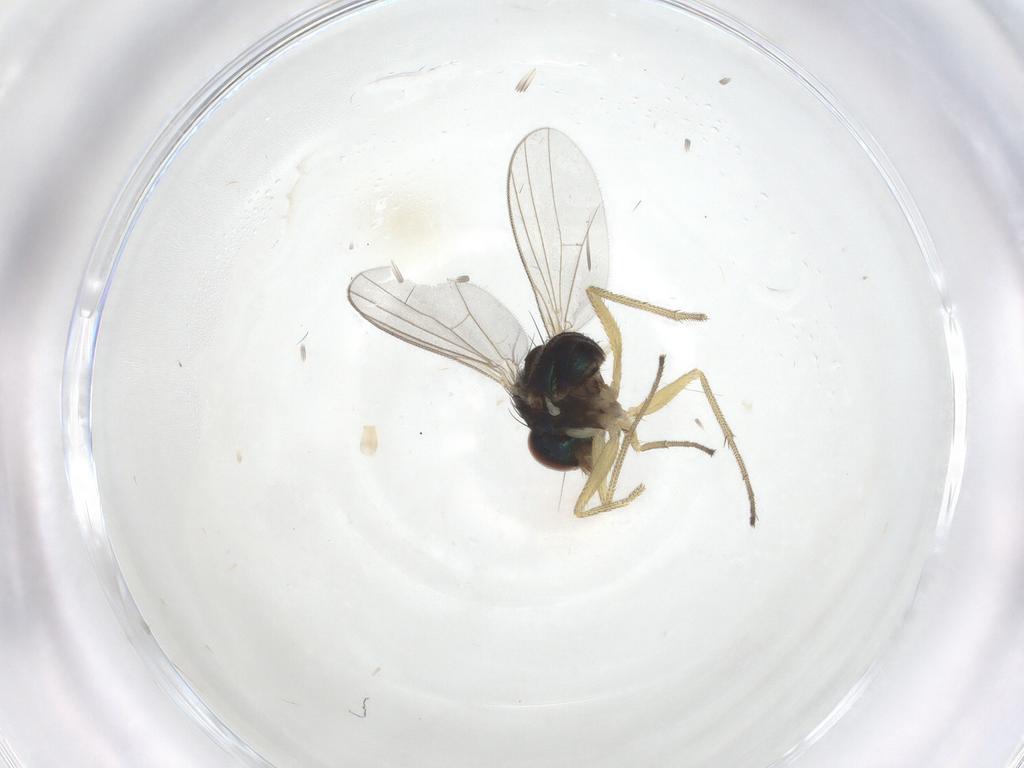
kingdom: Animalia
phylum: Arthropoda
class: Insecta
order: Diptera
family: Dolichopodidae
